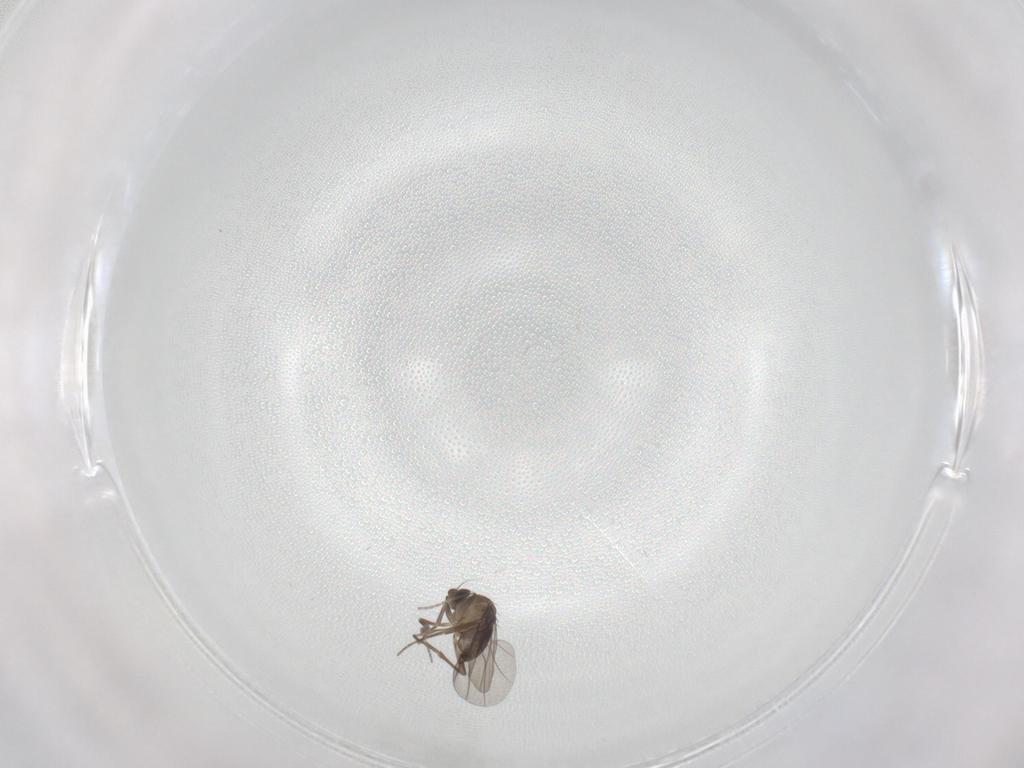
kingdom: Animalia
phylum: Arthropoda
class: Insecta
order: Diptera
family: Phoridae
